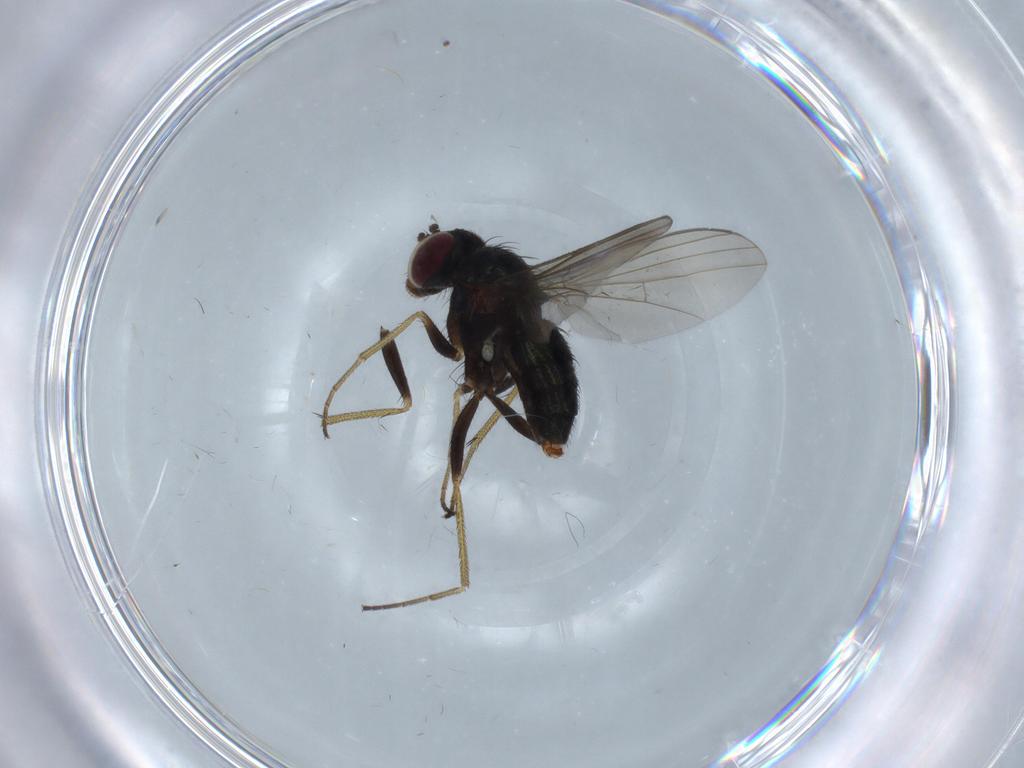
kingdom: Animalia
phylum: Arthropoda
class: Insecta
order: Diptera
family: Dolichopodidae
